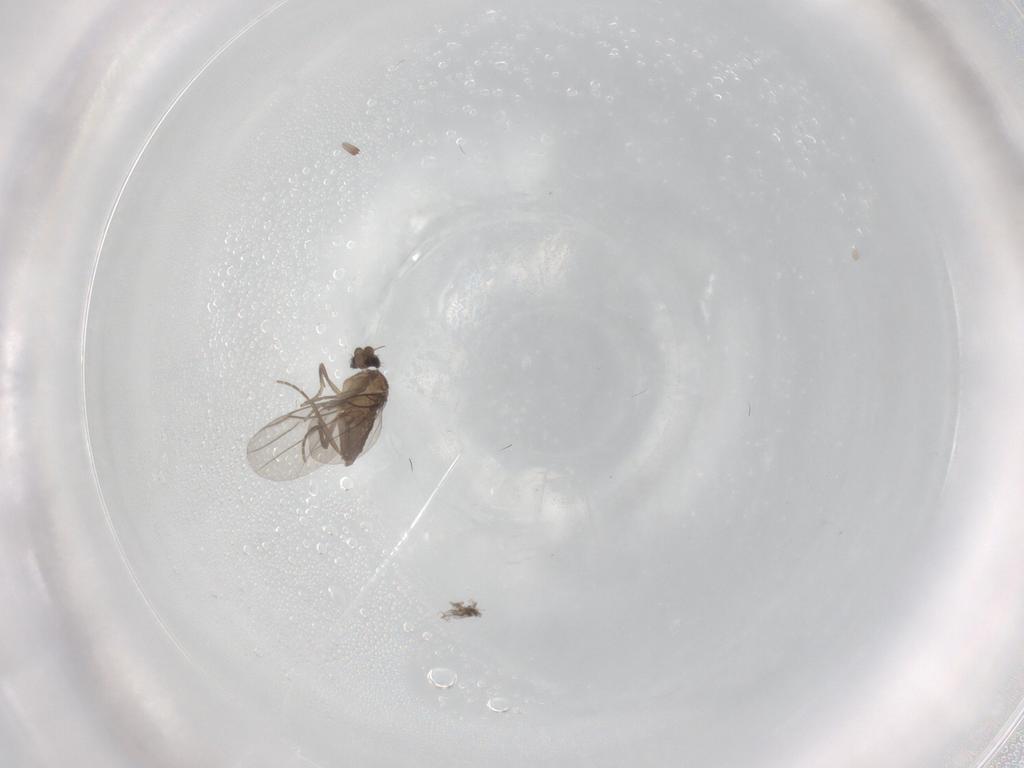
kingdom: Animalia
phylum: Arthropoda
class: Insecta
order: Diptera
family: Phoridae
